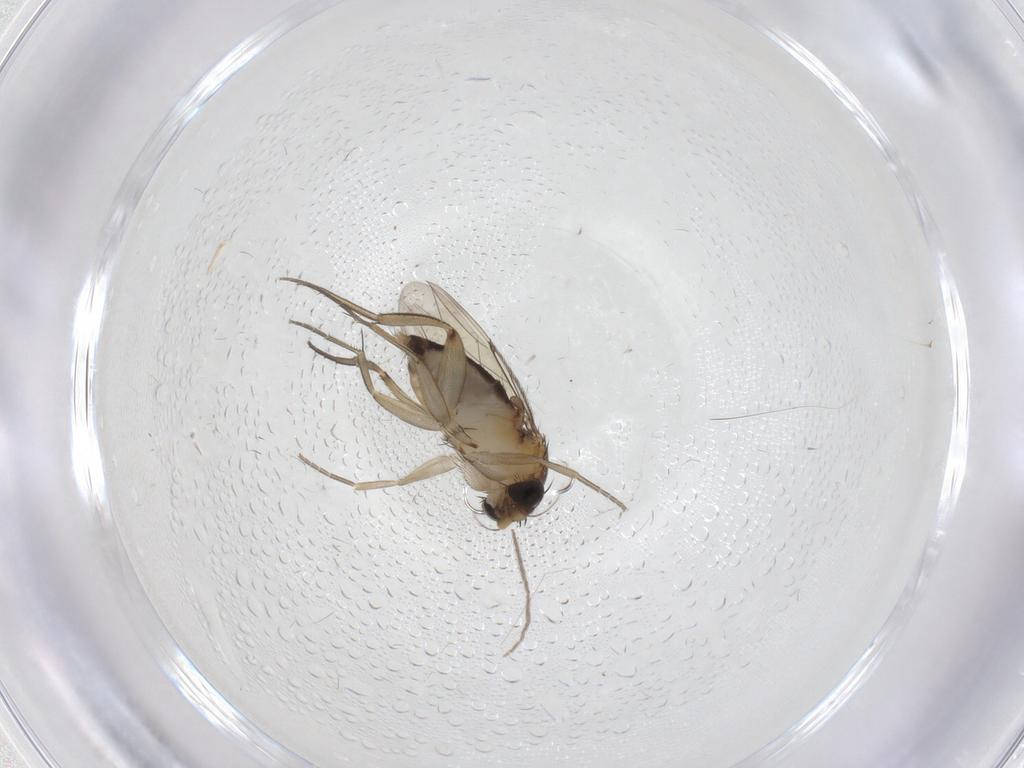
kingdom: Animalia
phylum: Arthropoda
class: Insecta
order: Diptera
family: Phoridae
